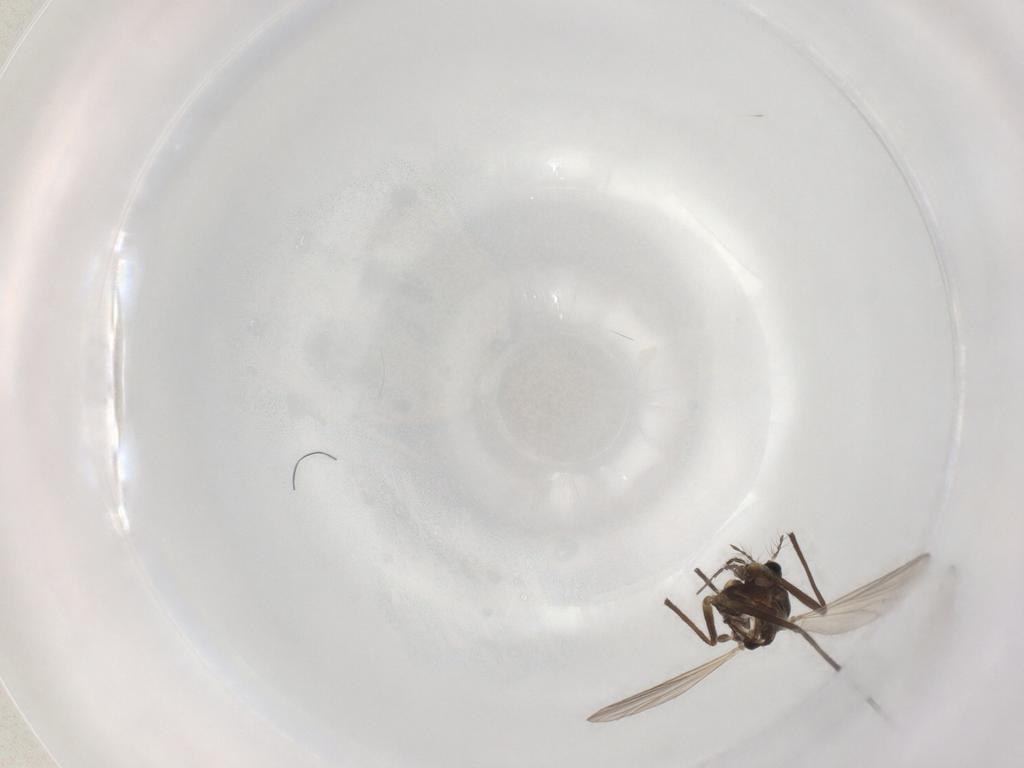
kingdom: Animalia
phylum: Arthropoda
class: Insecta
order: Diptera
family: Chironomidae
